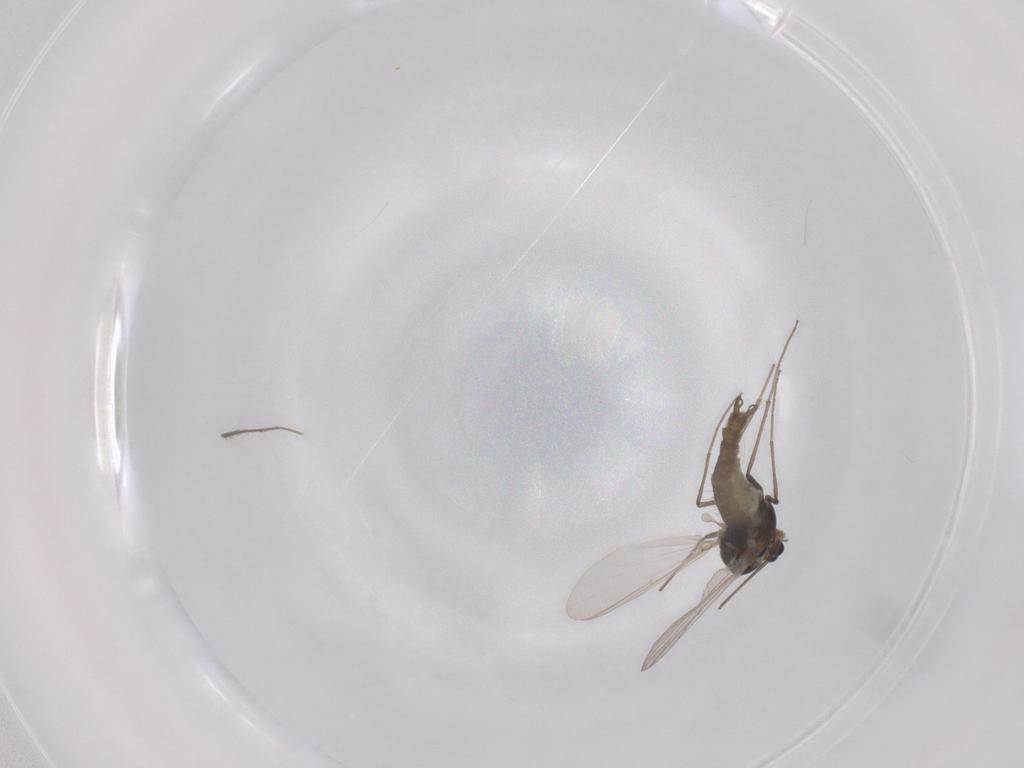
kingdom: Animalia
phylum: Arthropoda
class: Insecta
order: Diptera
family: Chironomidae
